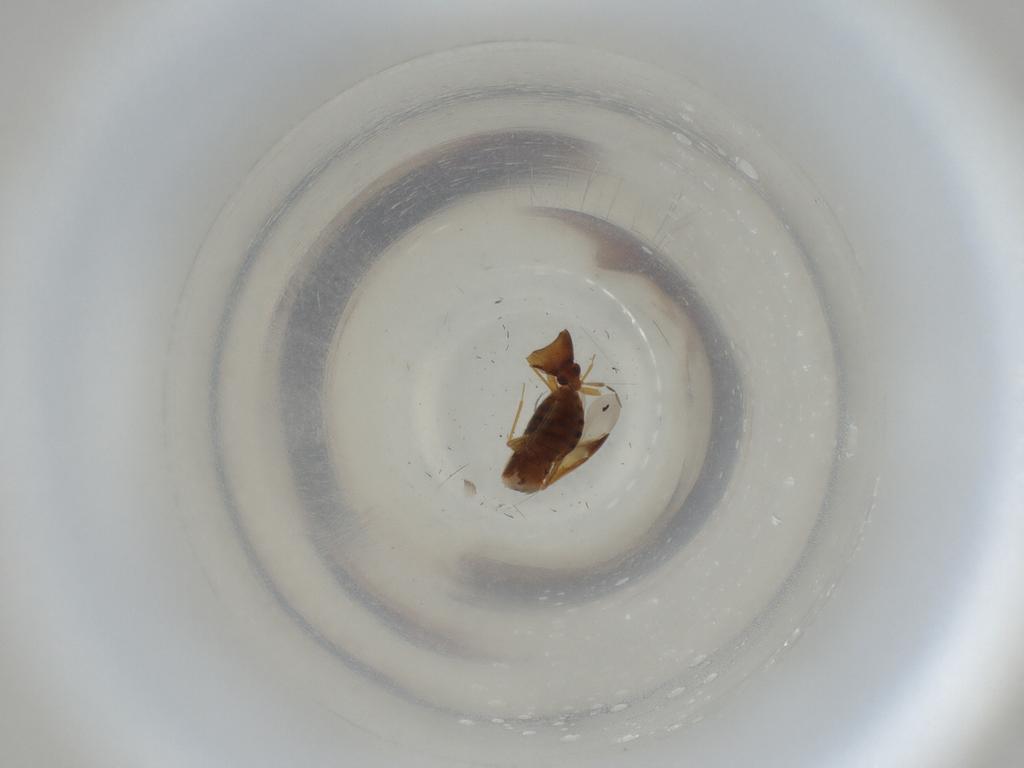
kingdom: Animalia
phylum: Arthropoda
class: Insecta
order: Hemiptera
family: Anthocoridae
